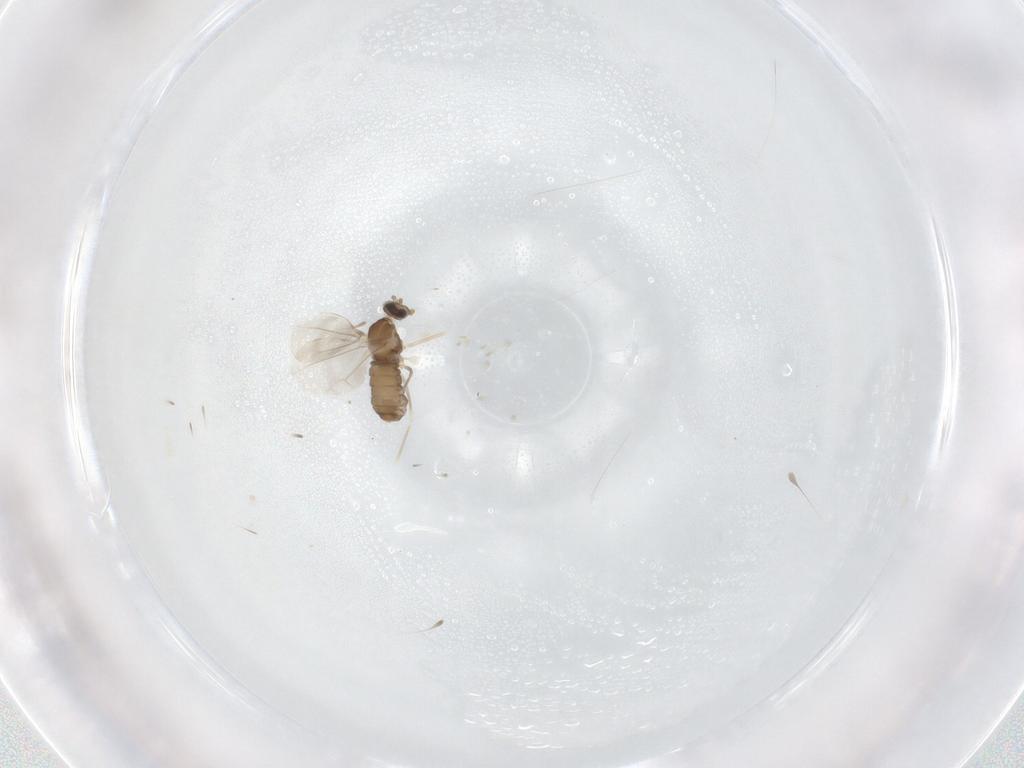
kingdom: Animalia
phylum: Arthropoda
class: Insecta
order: Diptera
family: Cecidomyiidae
